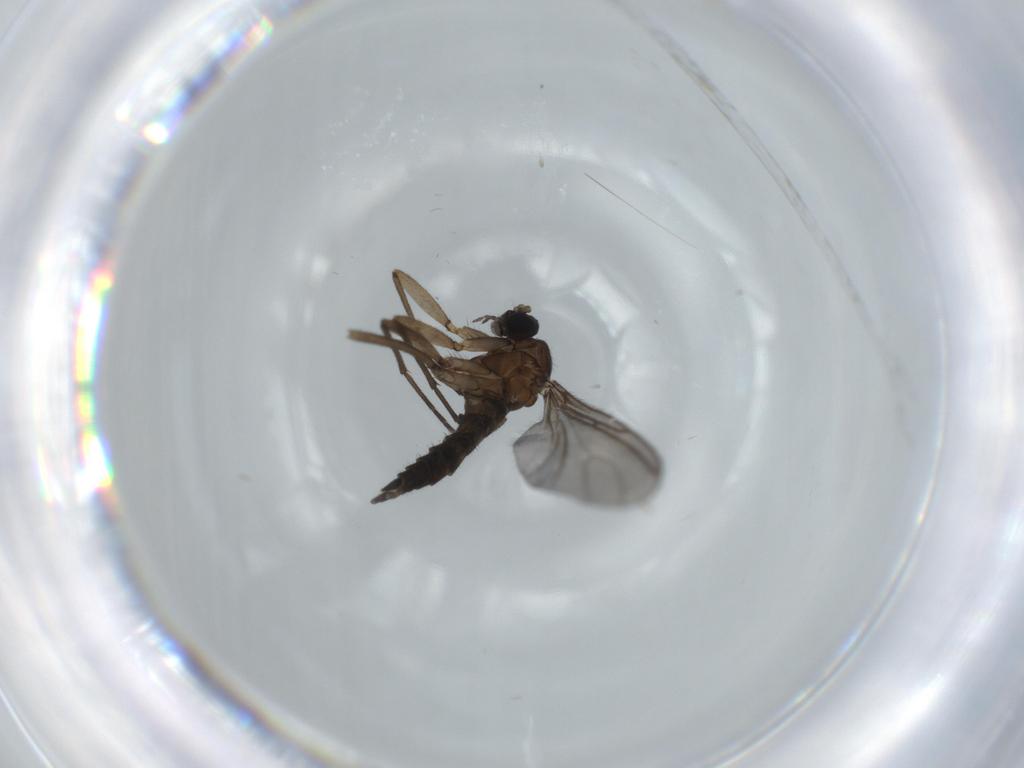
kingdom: Animalia
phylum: Arthropoda
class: Insecta
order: Diptera
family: Sciaridae
